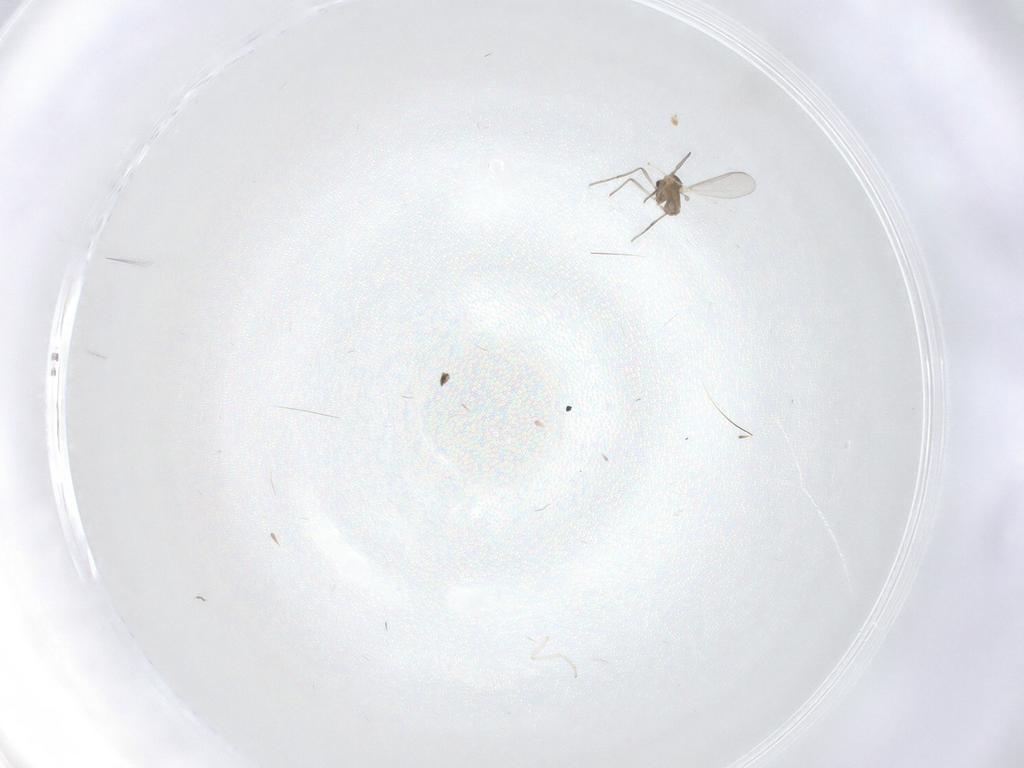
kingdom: Animalia
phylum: Arthropoda
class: Insecta
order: Diptera
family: Chironomidae
